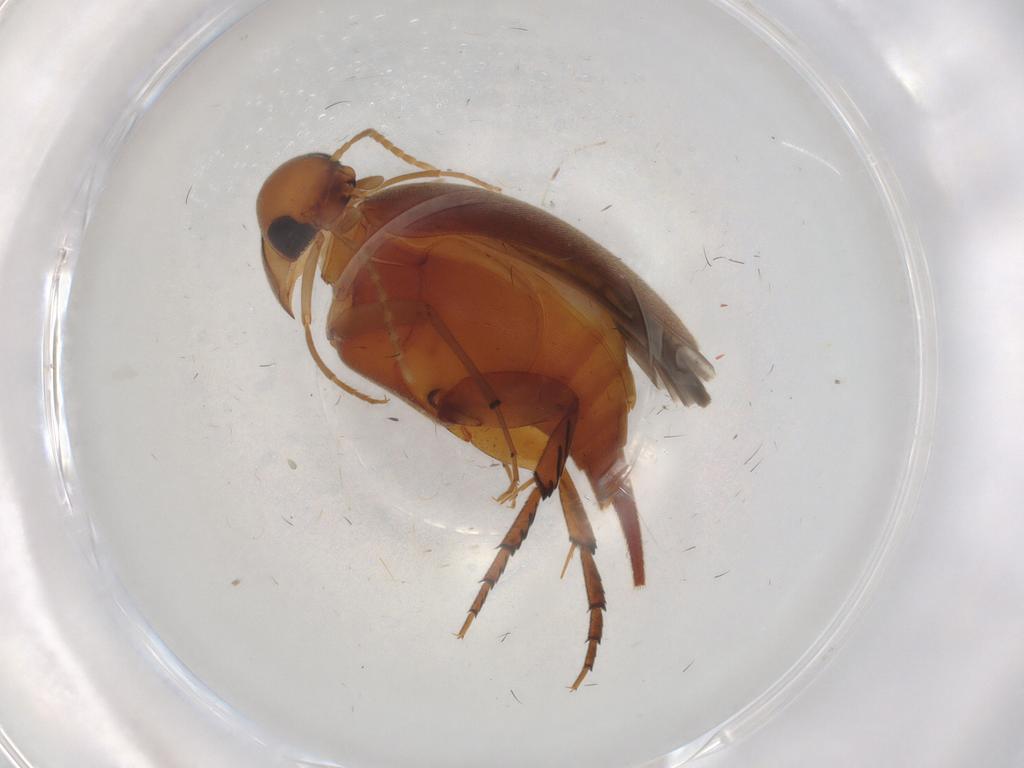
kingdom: Animalia
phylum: Arthropoda
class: Insecta
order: Coleoptera
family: Mordellidae
